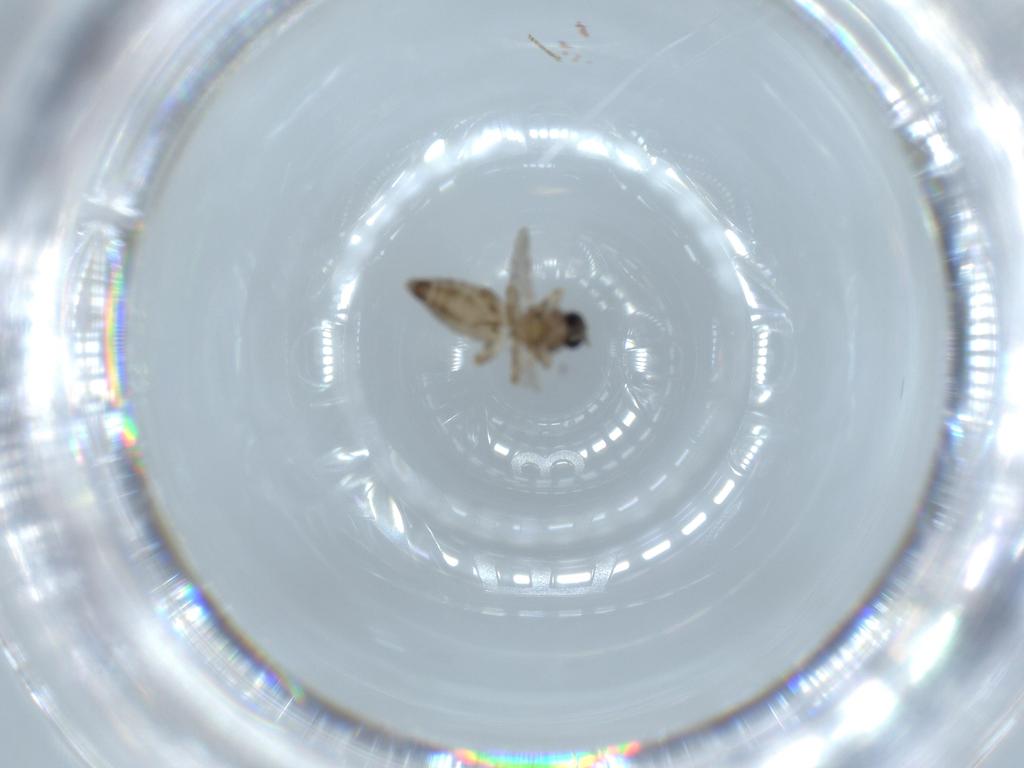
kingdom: Animalia
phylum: Arthropoda
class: Insecta
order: Diptera
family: Ceratopogonidae
